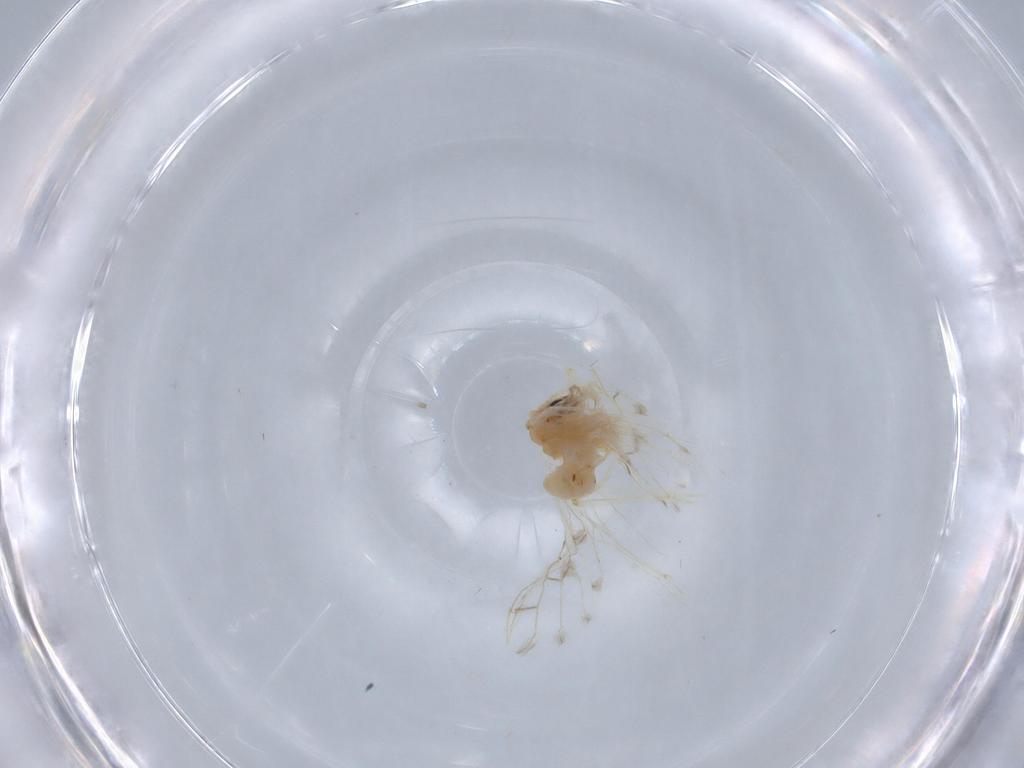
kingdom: Animalia
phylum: Arthropoda
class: Insecta
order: Neuroptera
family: Coniopterygidae
